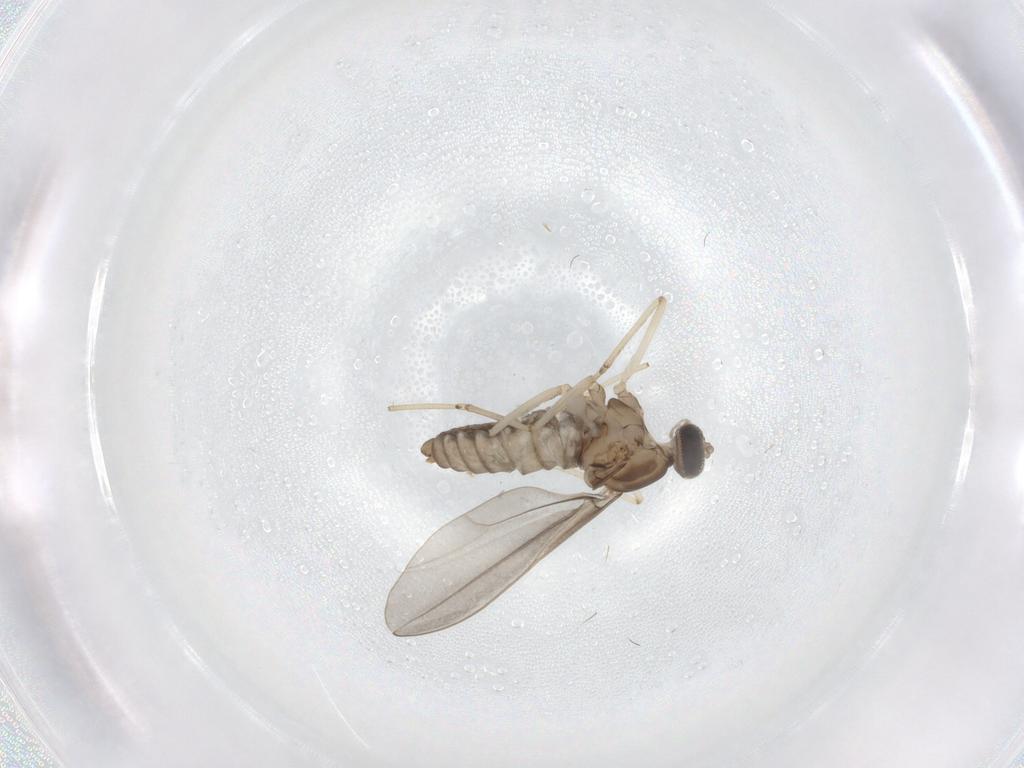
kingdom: Animalia
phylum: Arthropoda
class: Insecta
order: Diptera
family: Cecidomyiidae
